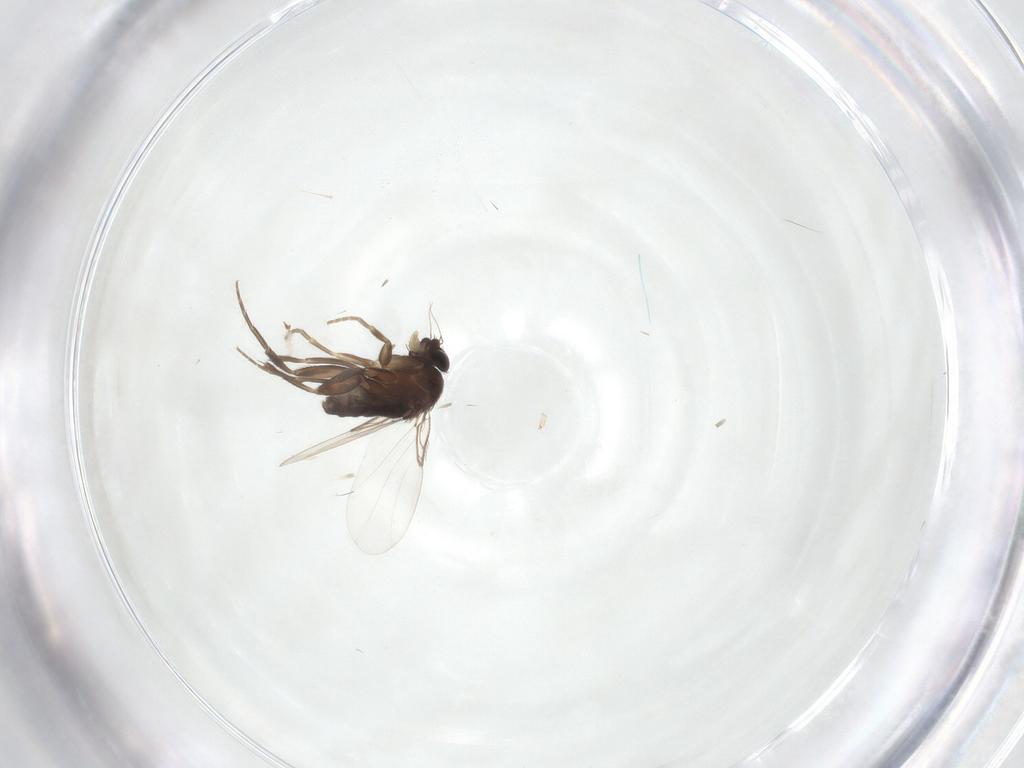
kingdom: Animalia
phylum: Arthropoda
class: Insecta
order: Diptera
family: Phoridae
